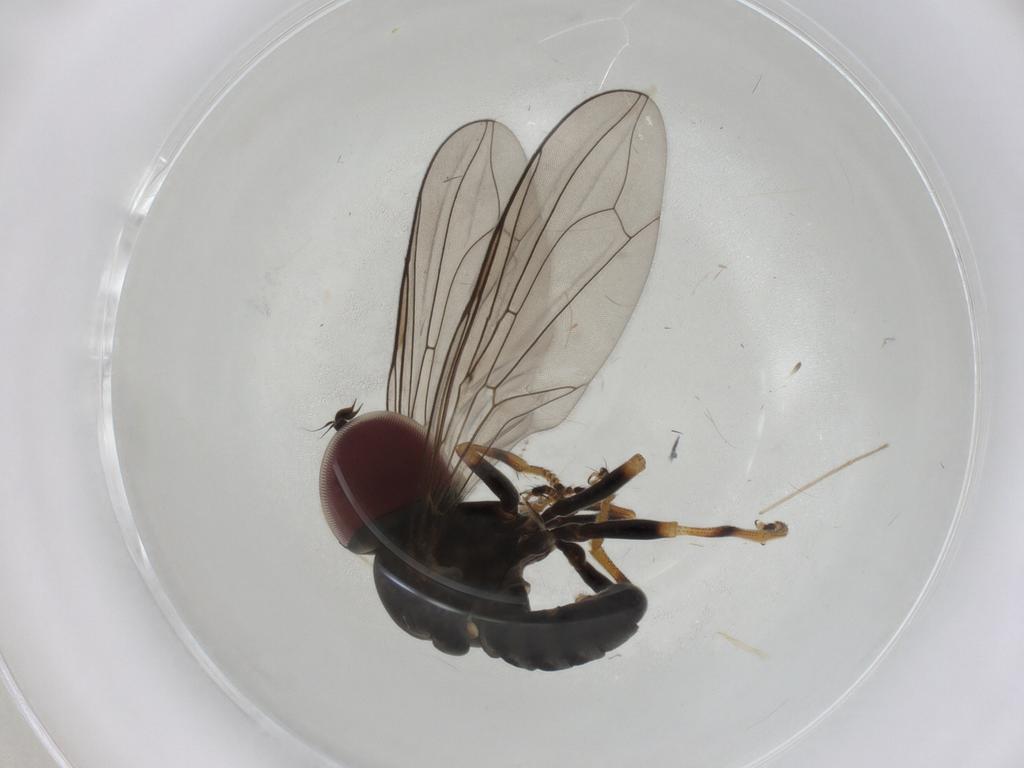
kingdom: Animalia
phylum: Arthropoda
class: Insecta
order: Diptera
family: Pipunculidae
